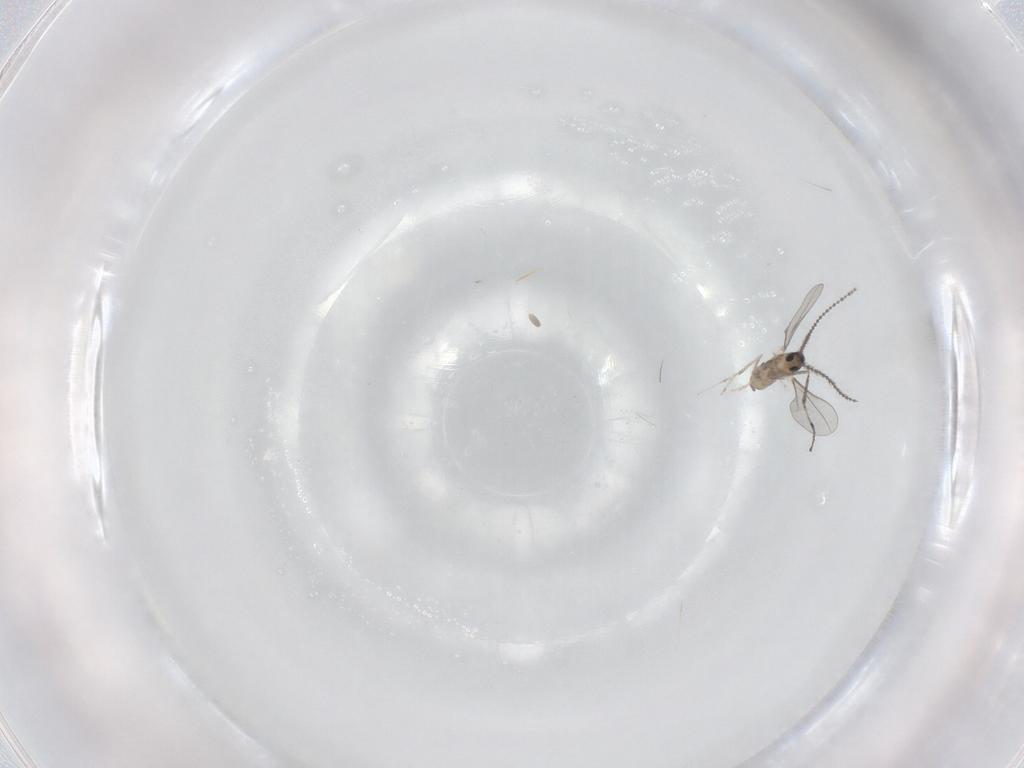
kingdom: Animalia
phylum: Arthropoda
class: Insecta
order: Diptera
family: Cecidomyiidae
